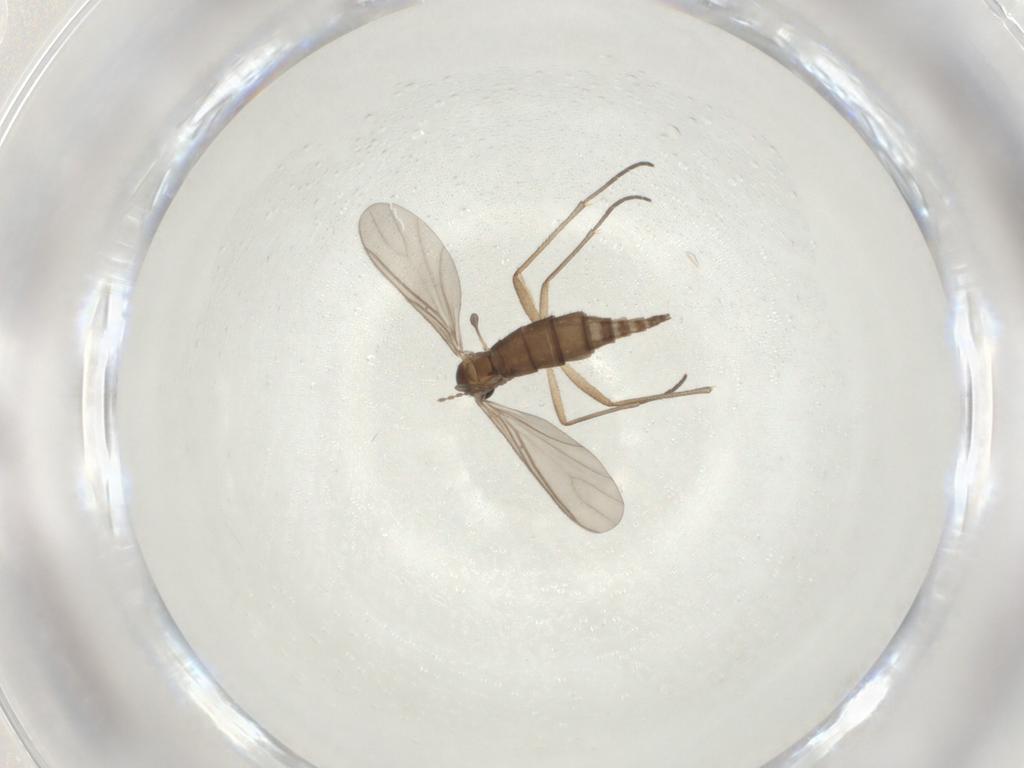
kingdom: Animalia
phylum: Arthropoda
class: Insecta
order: Diptera
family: Sciaridae
